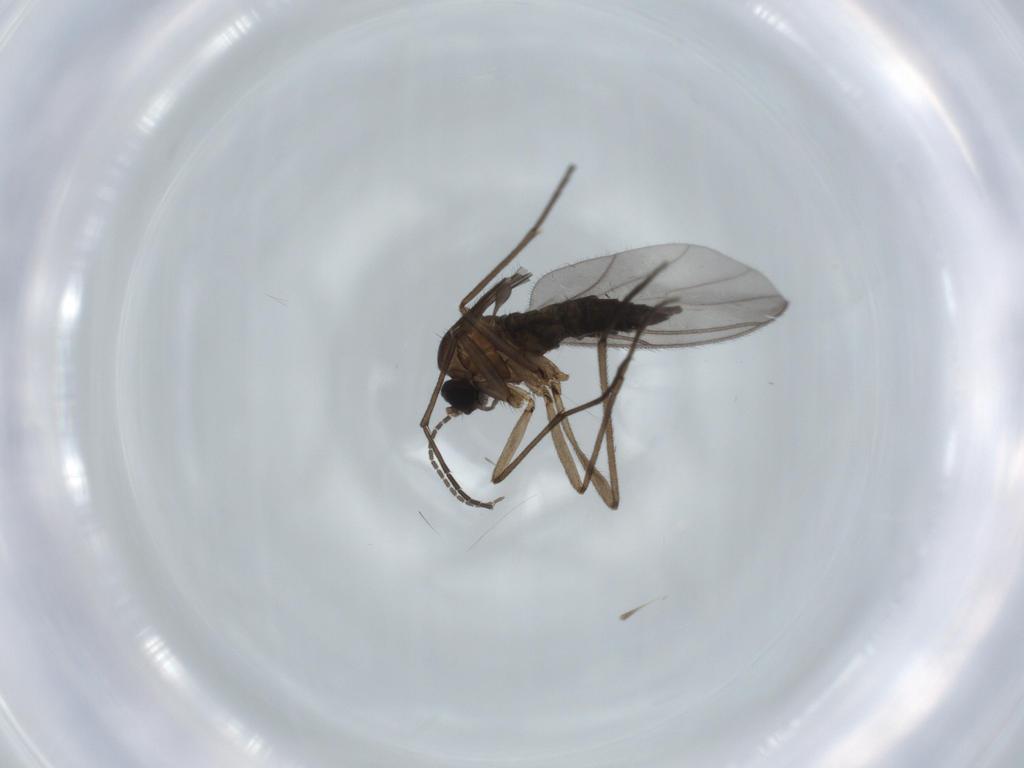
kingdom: Animalia
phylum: Arthropoda
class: Insecta
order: Diptera
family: Sciaridae
